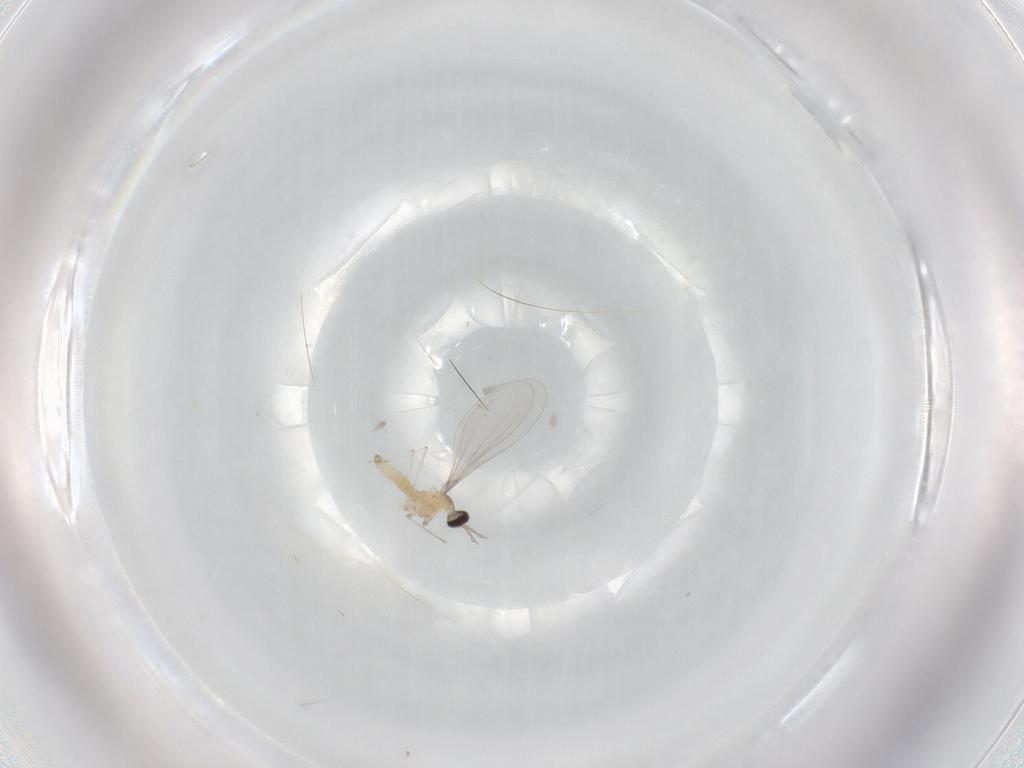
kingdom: Animalia
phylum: Arthropoda
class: Insecta
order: Diptera
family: Cecidomyiidae
